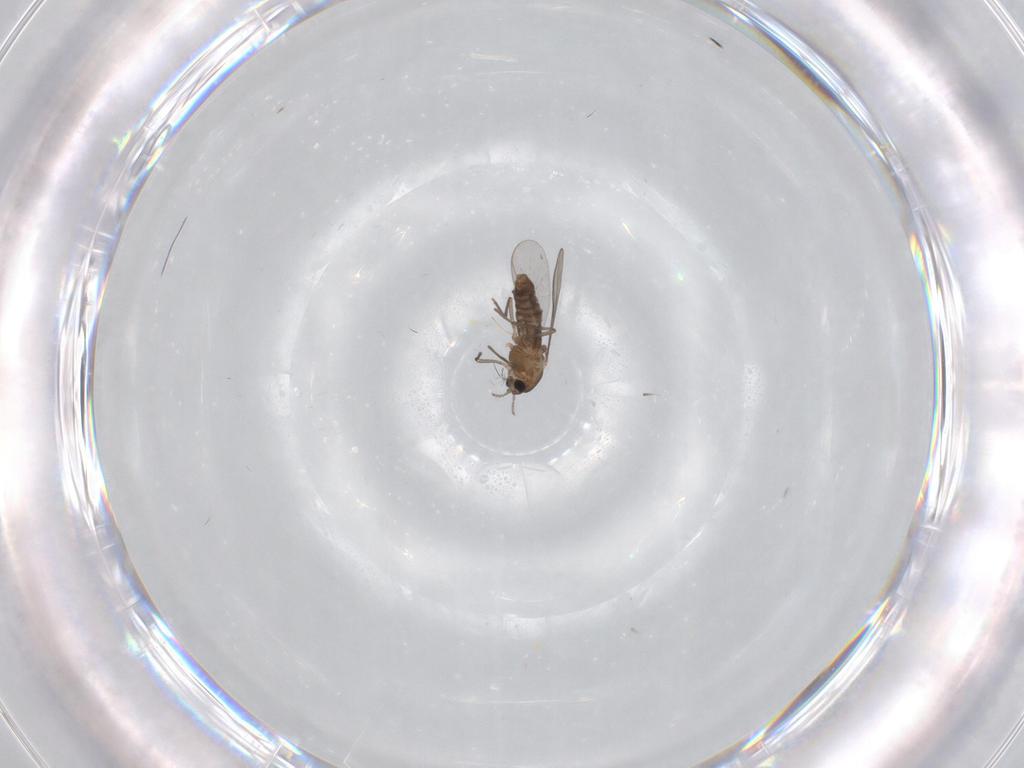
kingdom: Animalia
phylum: Arthropoda
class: Insecta
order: Diptera
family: Chironomidae
